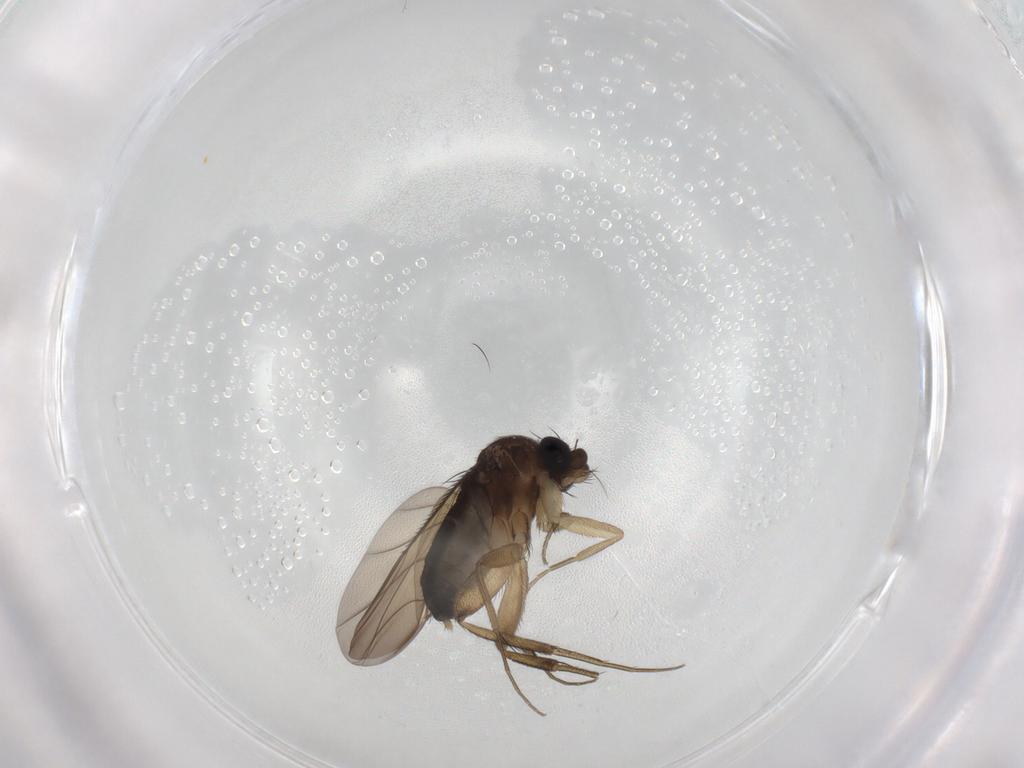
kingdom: Animalia
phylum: Arthropoda
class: Insecta
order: Diptera
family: Phoridae
